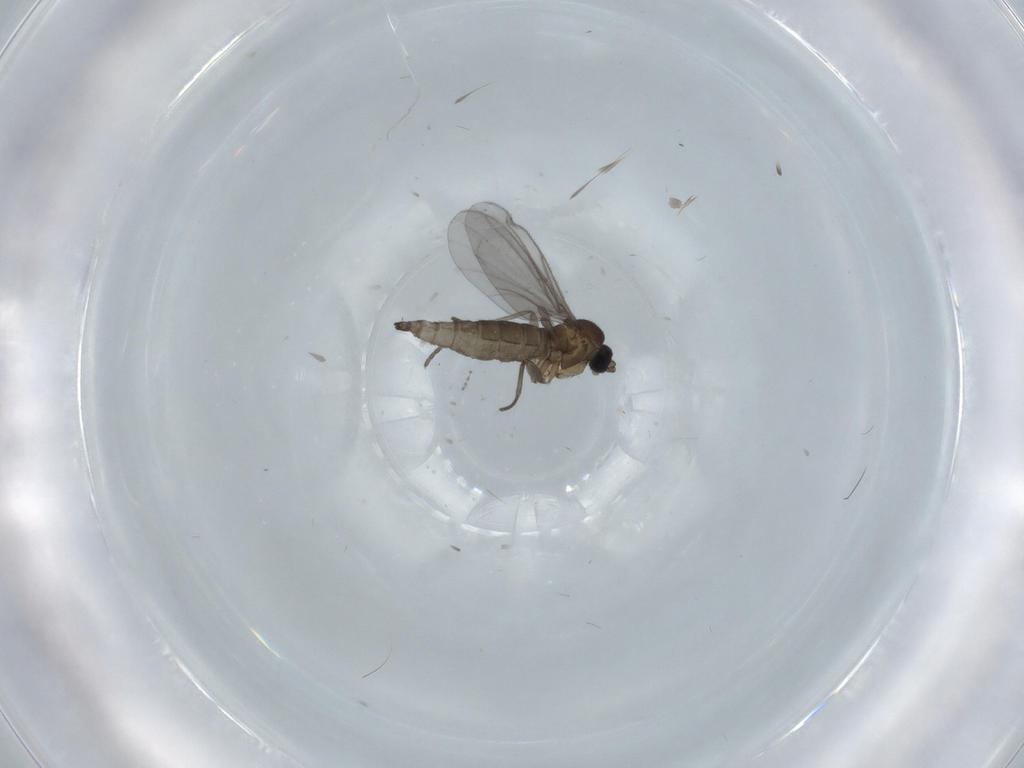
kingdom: Animalia
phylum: Arthropoda
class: Insecta
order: Diptera
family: Cecidomyiidae
